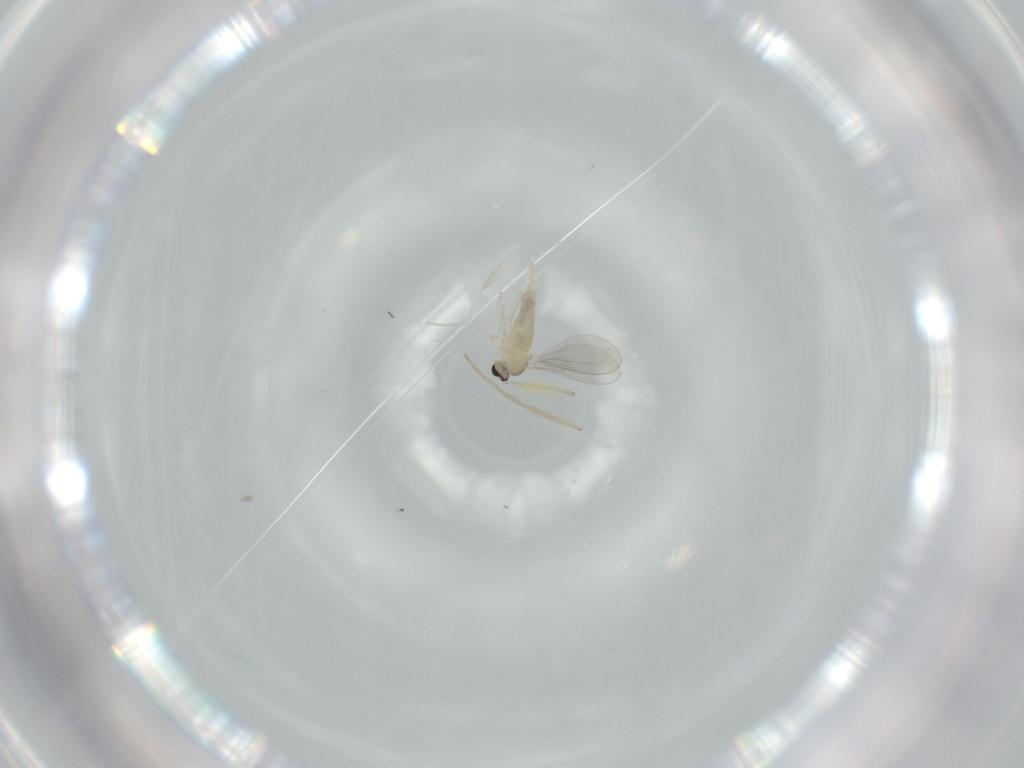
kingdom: Animalia
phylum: Arthropoda
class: Insecta
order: Diptera
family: Cecidomyiidae
